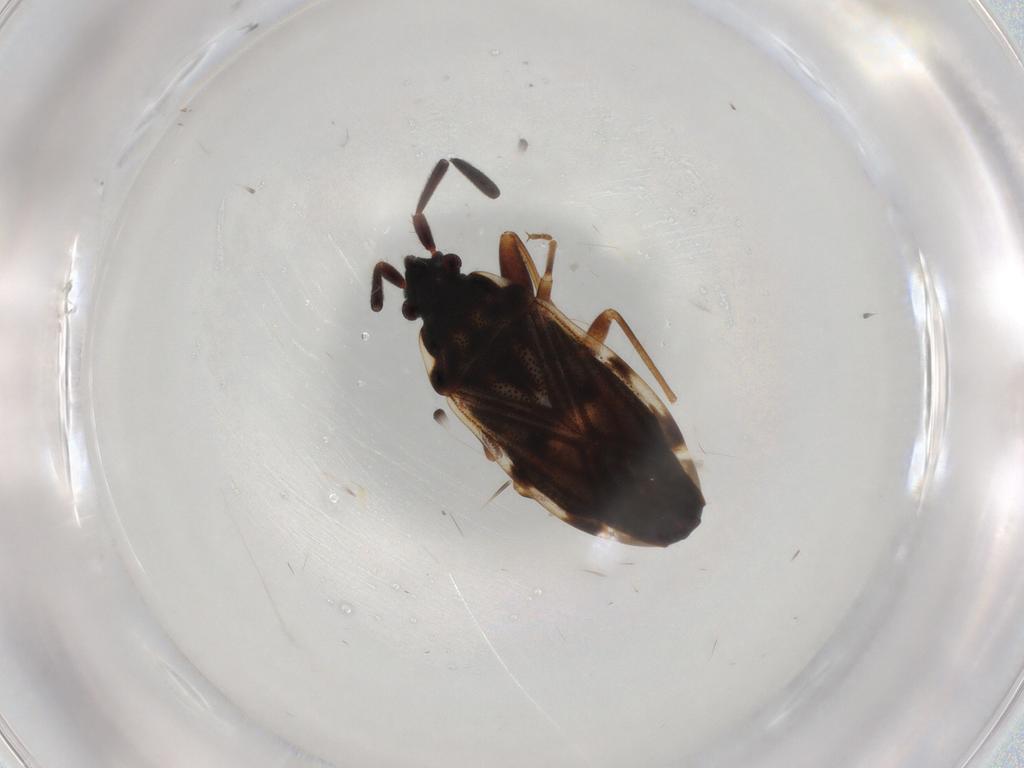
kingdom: Animalia
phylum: Arthropoda
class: Insecta
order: Hemiptera
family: Rhyparochromidae
